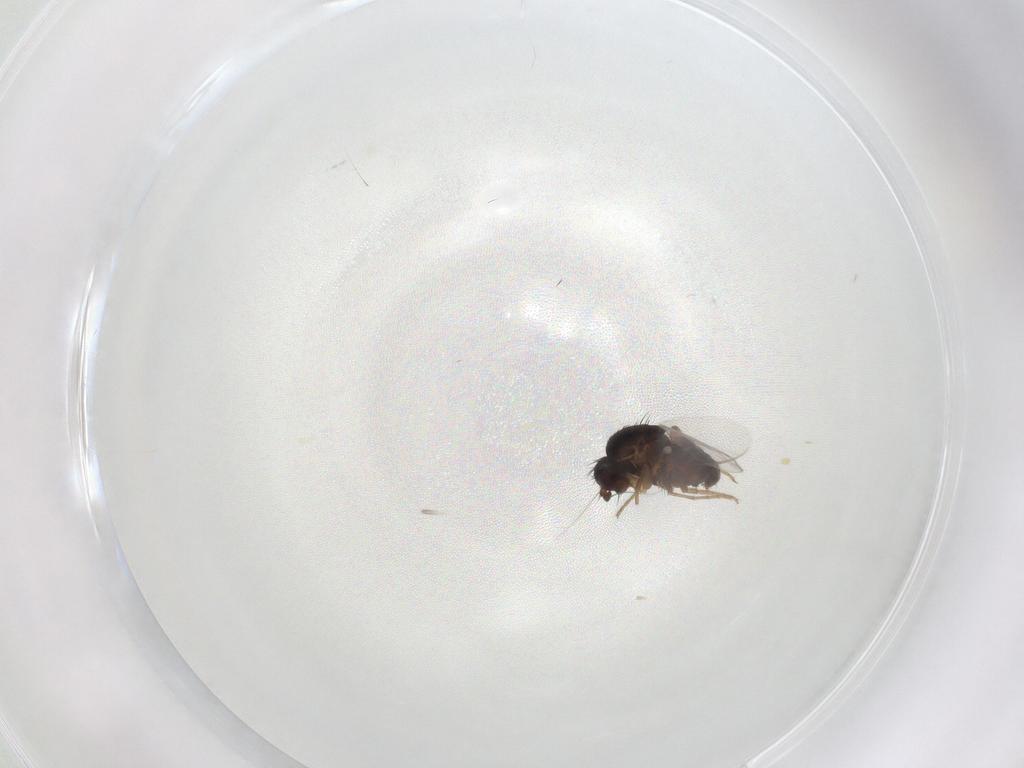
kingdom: Animalia
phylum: Arthropoda
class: Insecta
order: Diptera
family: Sphaeroceridae
